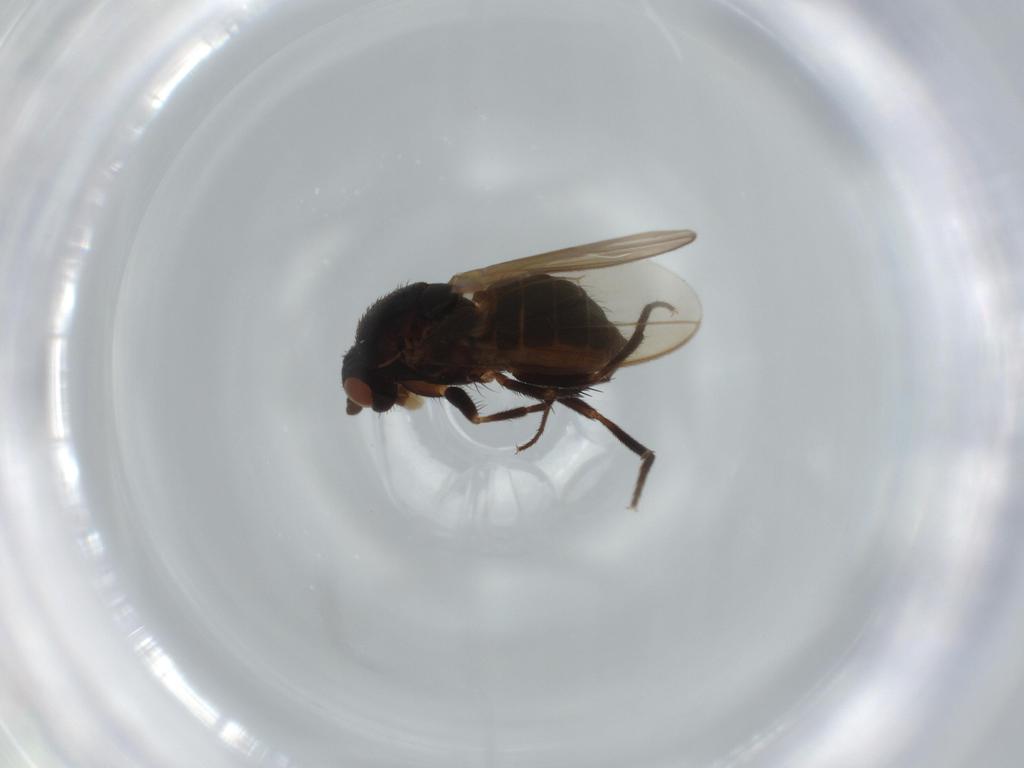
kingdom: Animalia
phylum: Arthropoda
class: Insecta
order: Diptera
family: Sphaeroceridae
